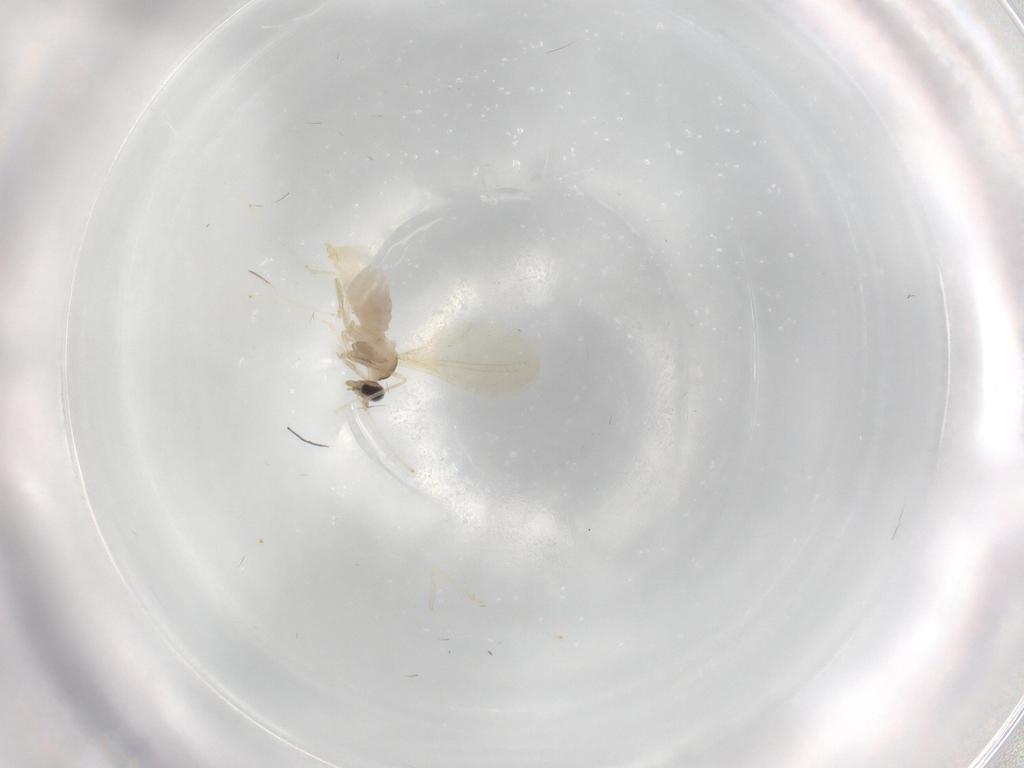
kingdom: Animalia
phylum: Arthropoda
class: Insecta
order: Diptera
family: Cecidomyiidae
